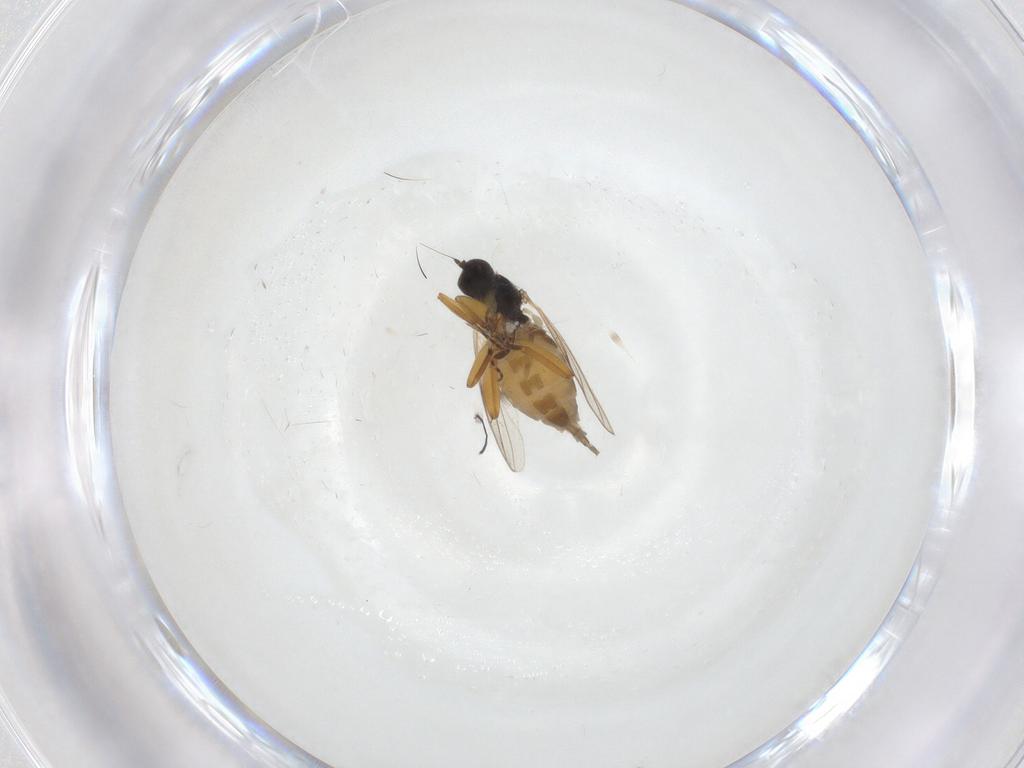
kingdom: Animalia
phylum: Arthropoda
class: Insecta
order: Diptera
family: Hybotidae
